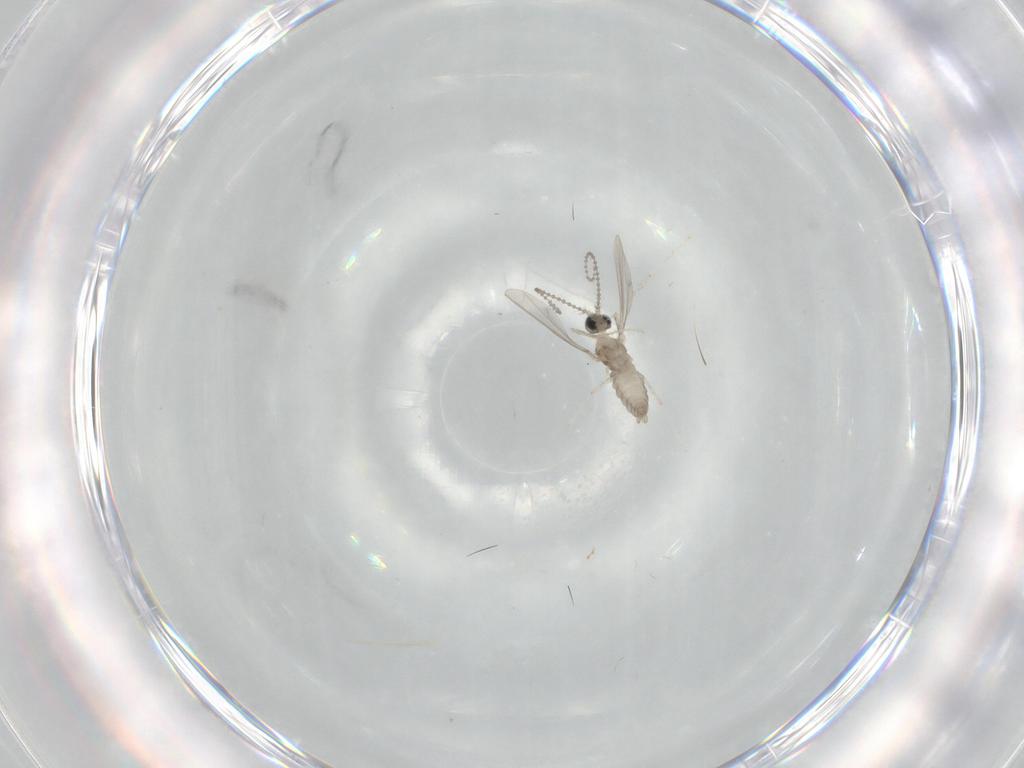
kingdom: Animalia
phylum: Arthropoda
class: Insecta
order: Diptera
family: Cecidomyiidae
